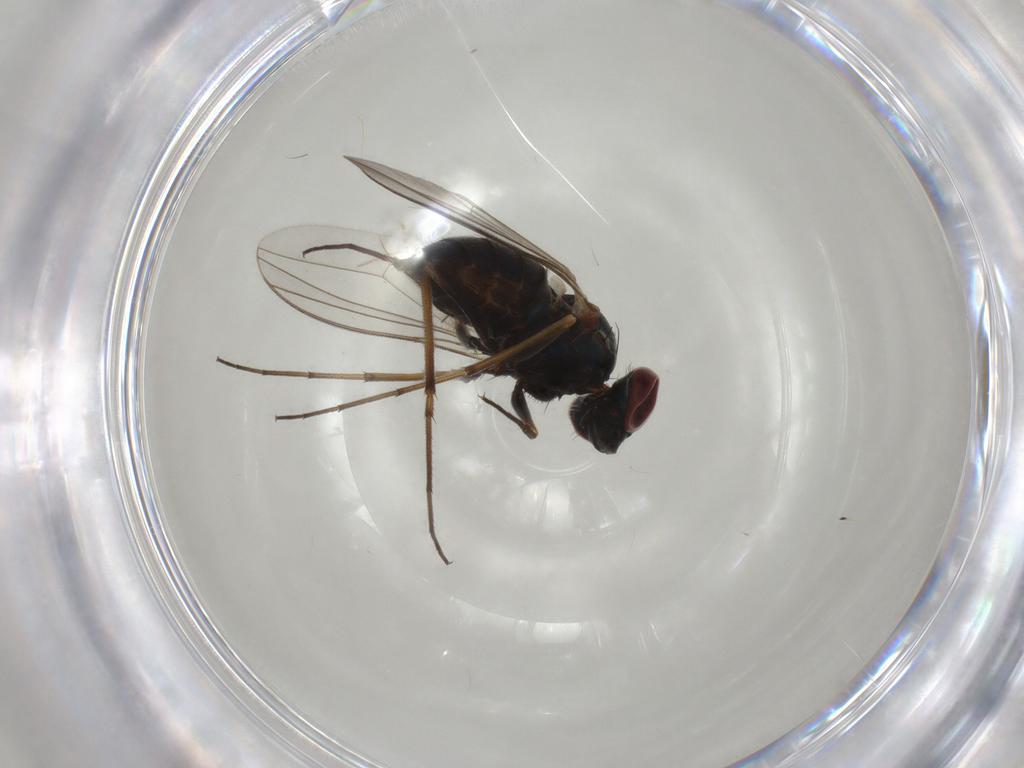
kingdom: Animalia
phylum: Arthropoda
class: Insecta
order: Diptera
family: Dolichopodidae
